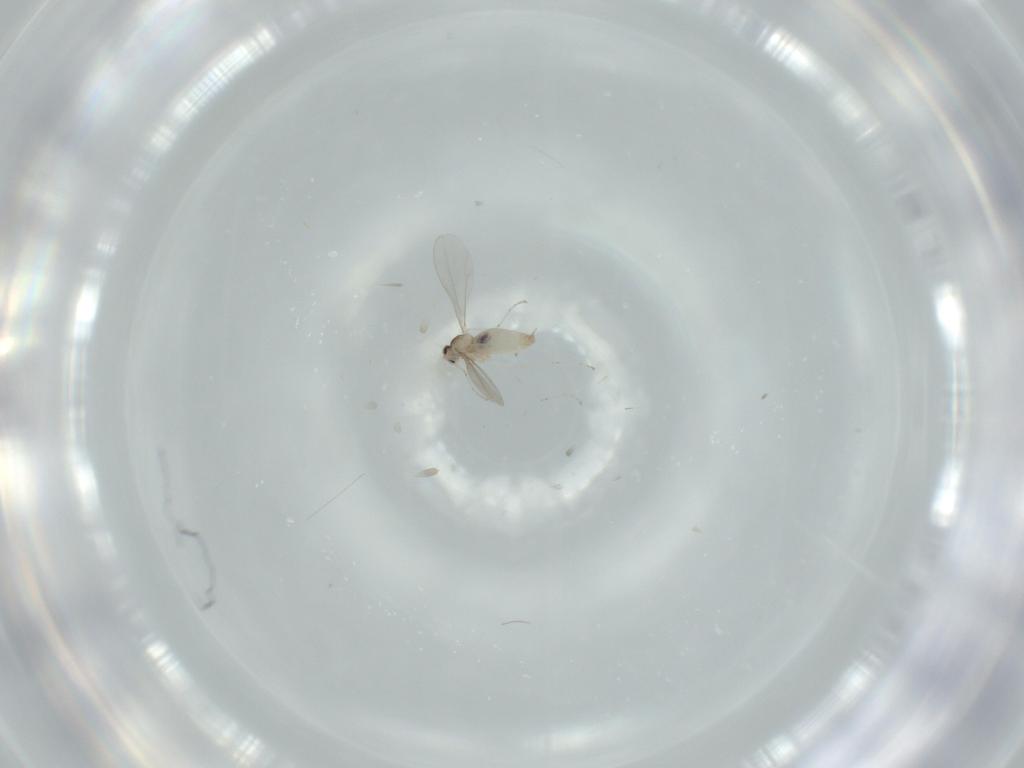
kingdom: Animalia
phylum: Arthropoda
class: Insecta
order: Diptera
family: Cecidomyiidae
